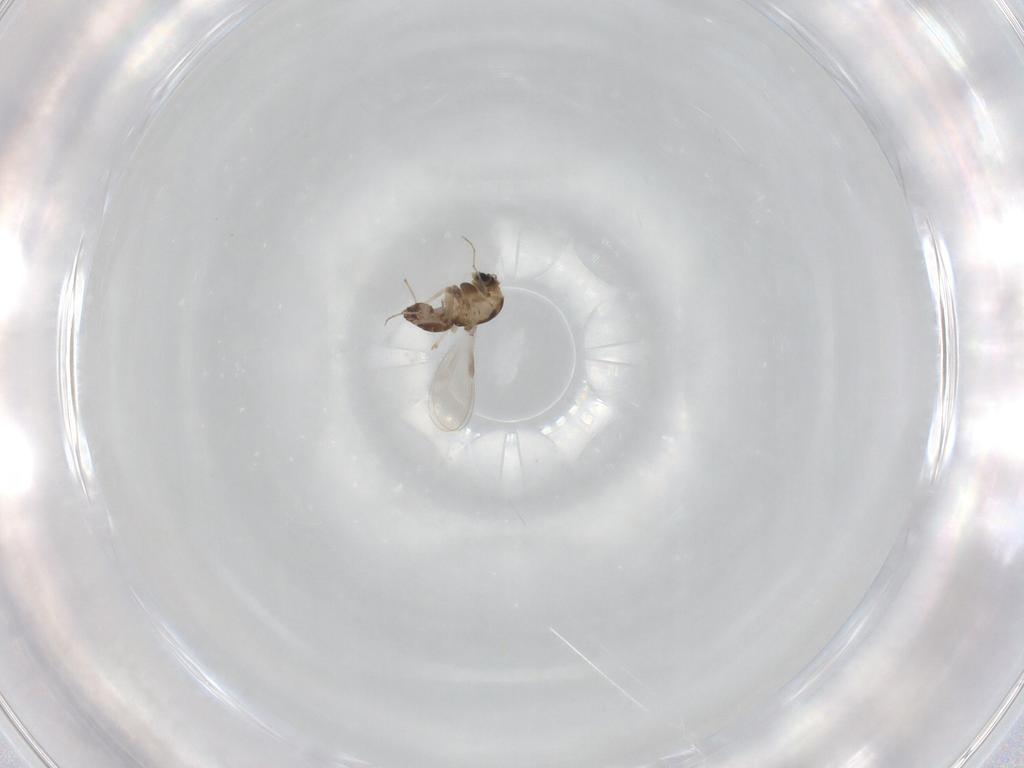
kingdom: Animalia
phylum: Arthropoda
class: Insecta
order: Diptera
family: Chironomidae
